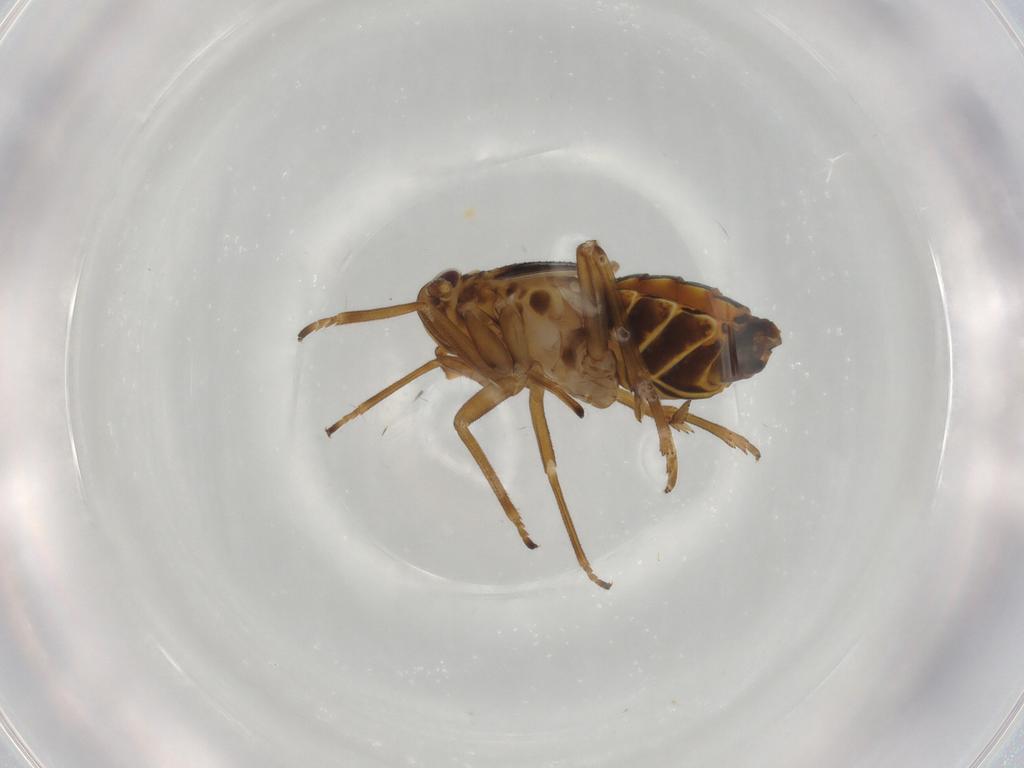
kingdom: Animalia
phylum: Arthropoda
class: Insecta
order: Hemiptera
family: Delphacidae
